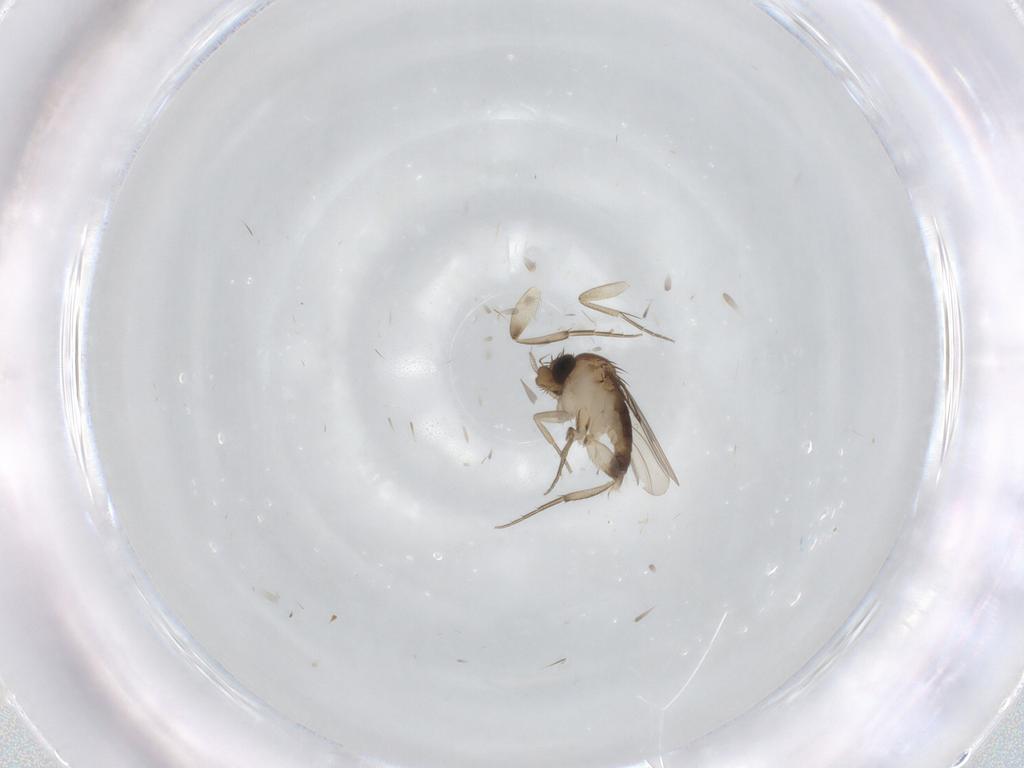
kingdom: Animalia
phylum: Arthropoda
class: Insecta
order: Diptera
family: Phoridae
